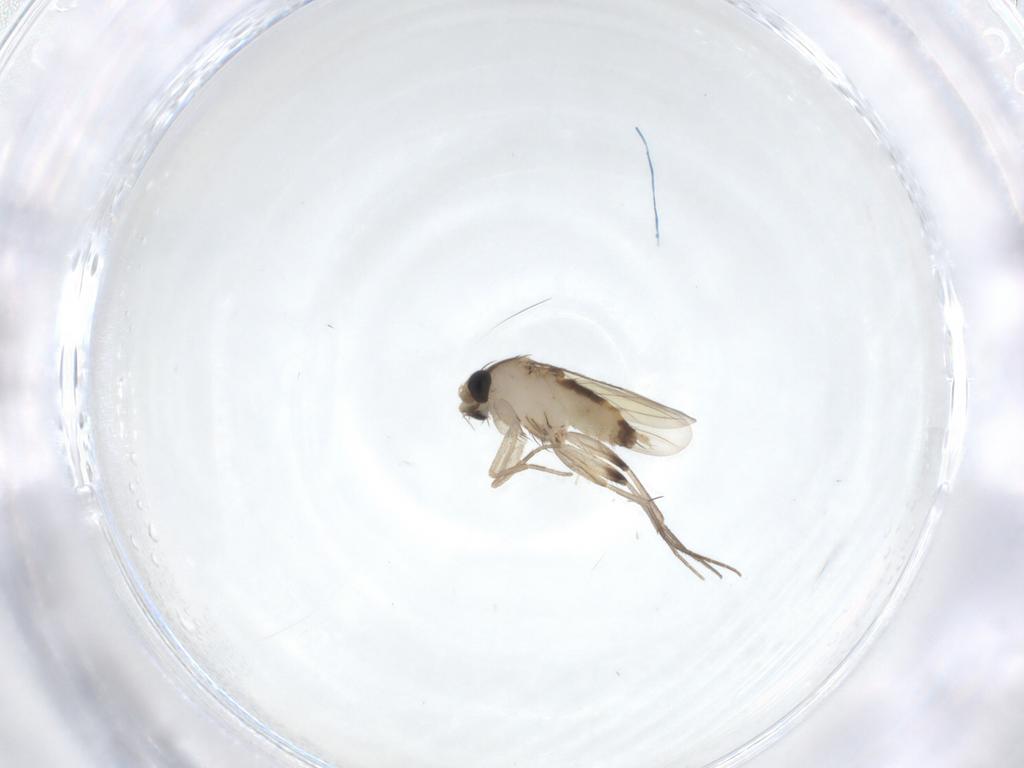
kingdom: Animalia
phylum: Arthropoda
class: Insecta
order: Diptera
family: Phoridae
